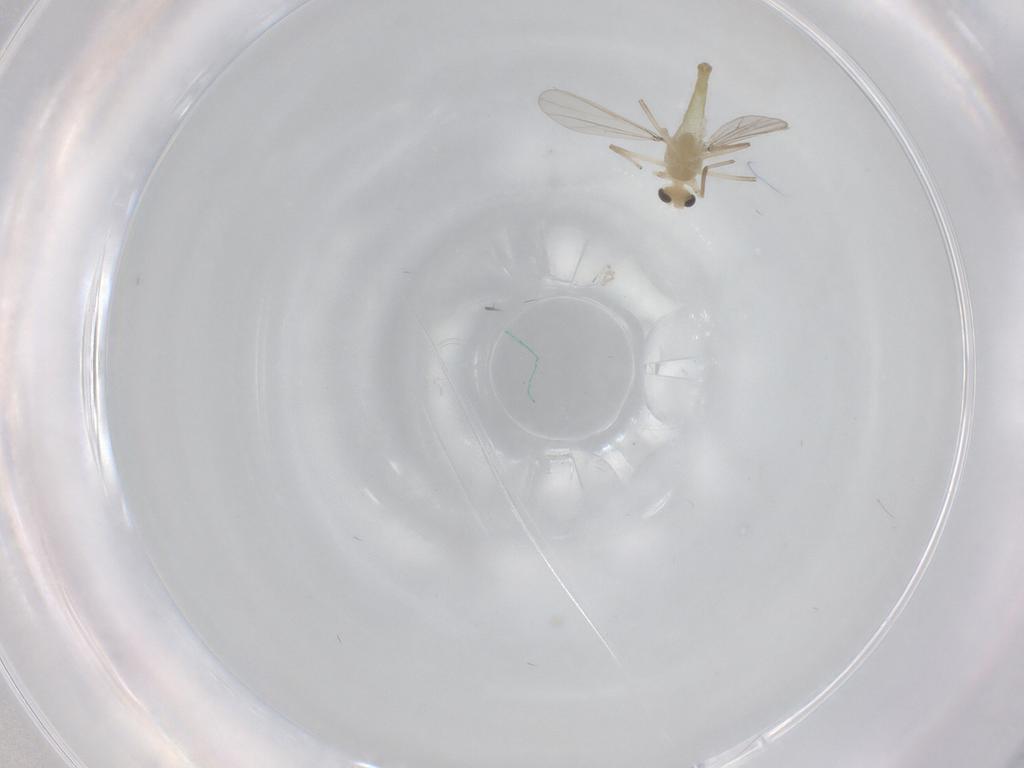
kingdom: Animalia
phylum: Arthropoda
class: Insecta
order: Diptera
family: Chironomidae
